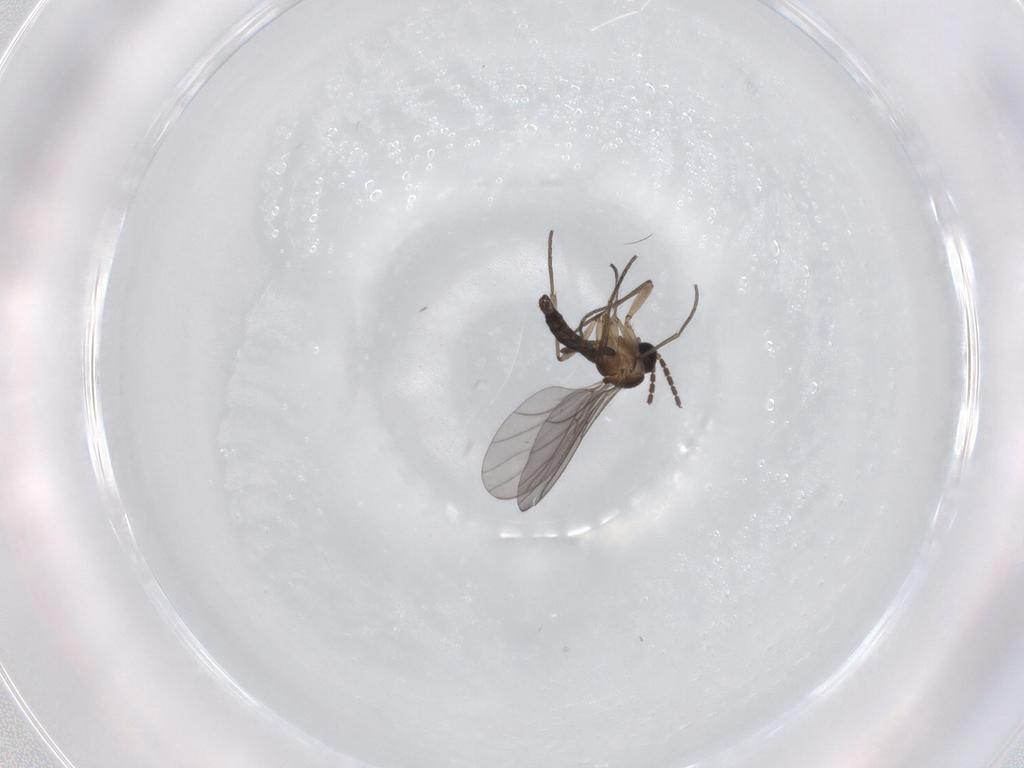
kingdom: Animalia
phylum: Arthropoda
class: Insecta
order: Diptera
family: Sciaridae
